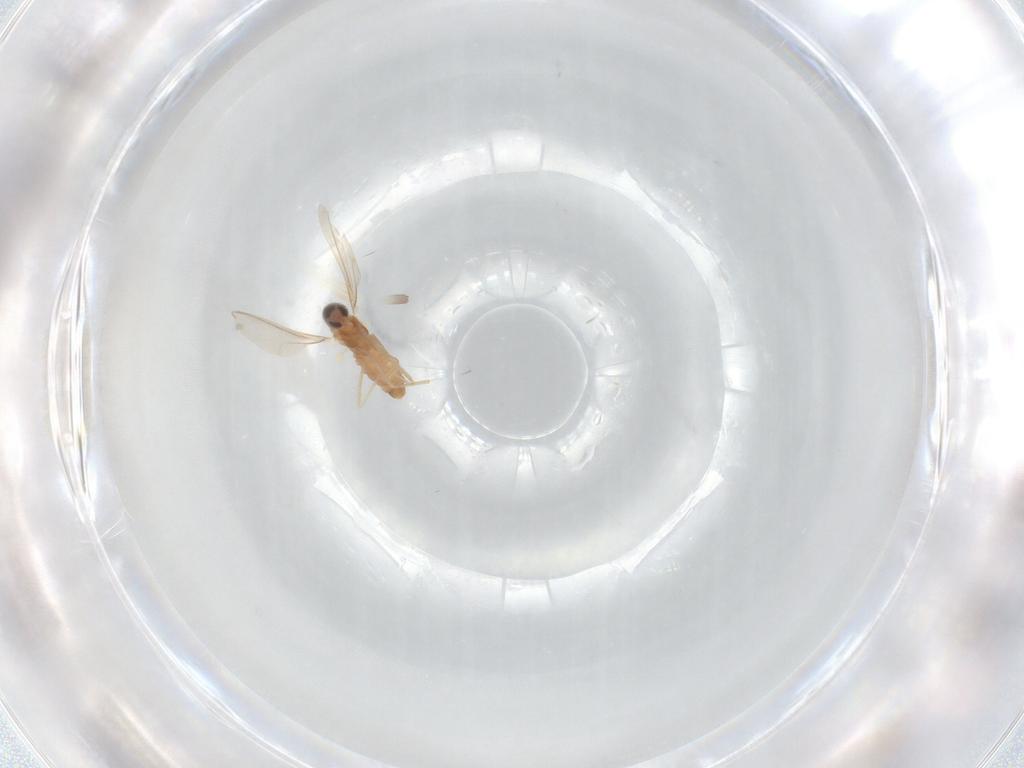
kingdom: Animalia
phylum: Arthropoda
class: Insecta
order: Diptera
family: Cecidomyiidae
